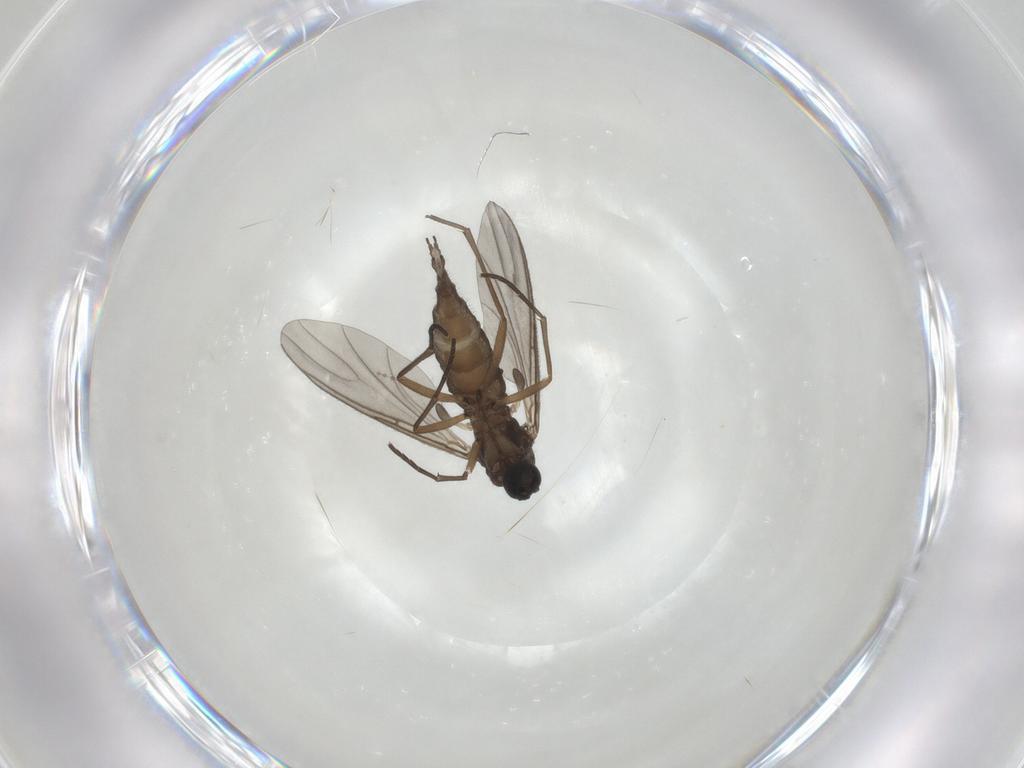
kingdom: Animalia
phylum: Arthropoda
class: Insecta
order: Diptera
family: Sciaridae
